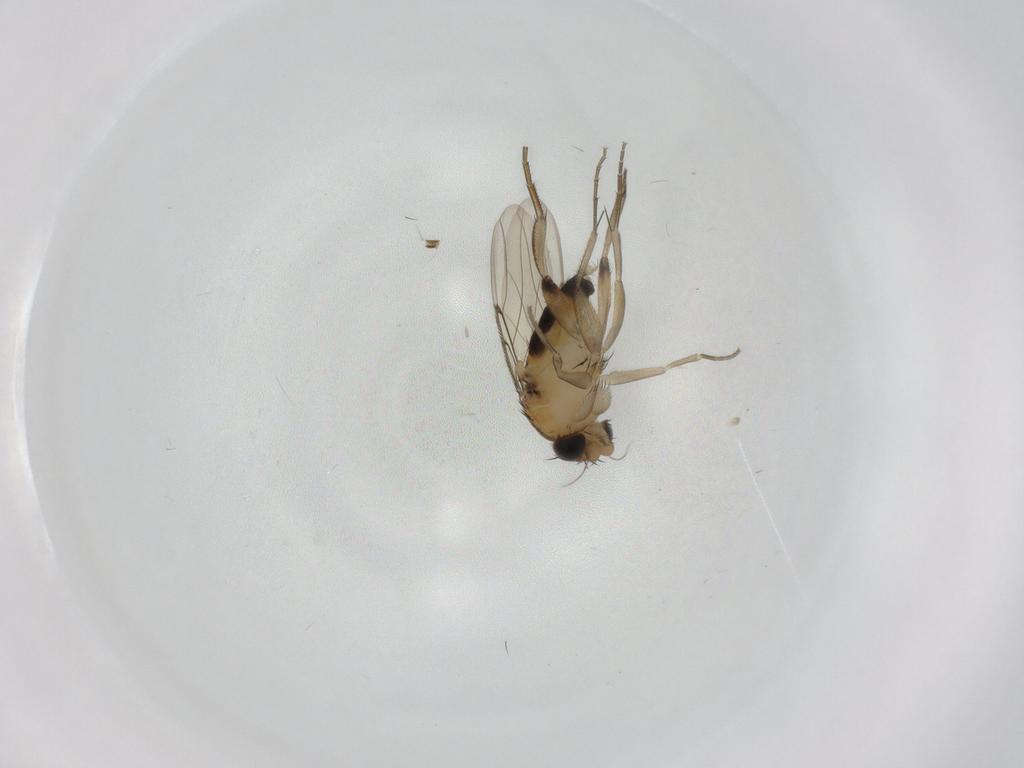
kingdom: Animalia
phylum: Arthropoda
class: Insecta
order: Diptera
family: Phoridae
